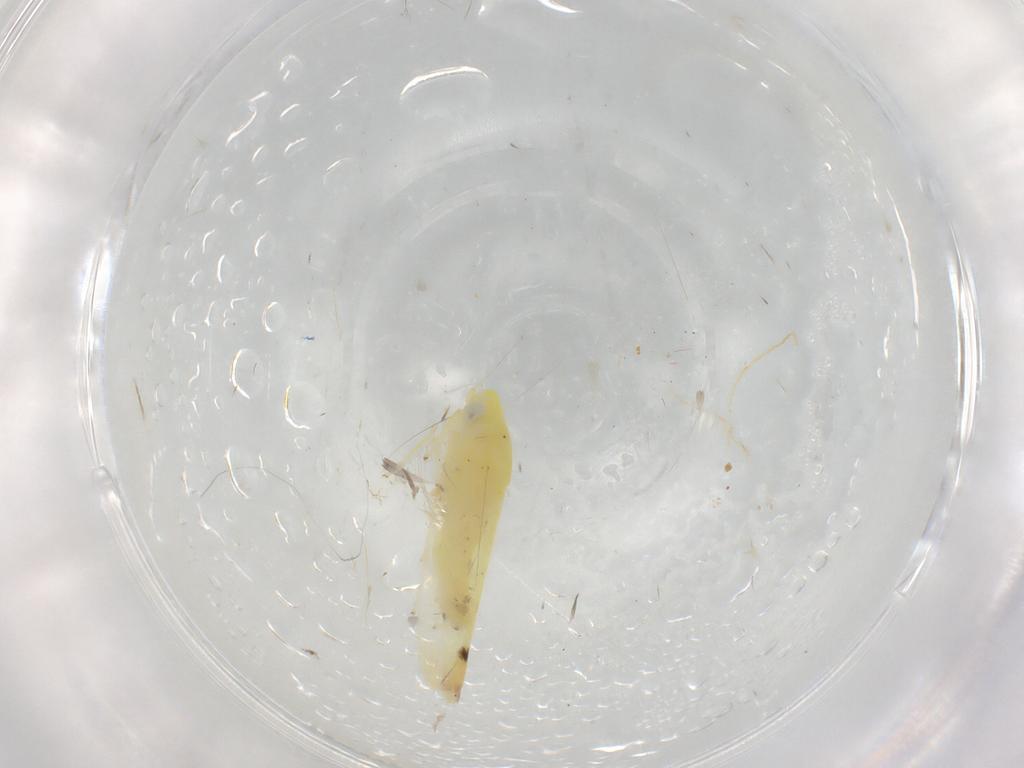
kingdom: Animalia
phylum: Arthropoda
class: Insecta
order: Hemiptera
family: Cicadellidae
